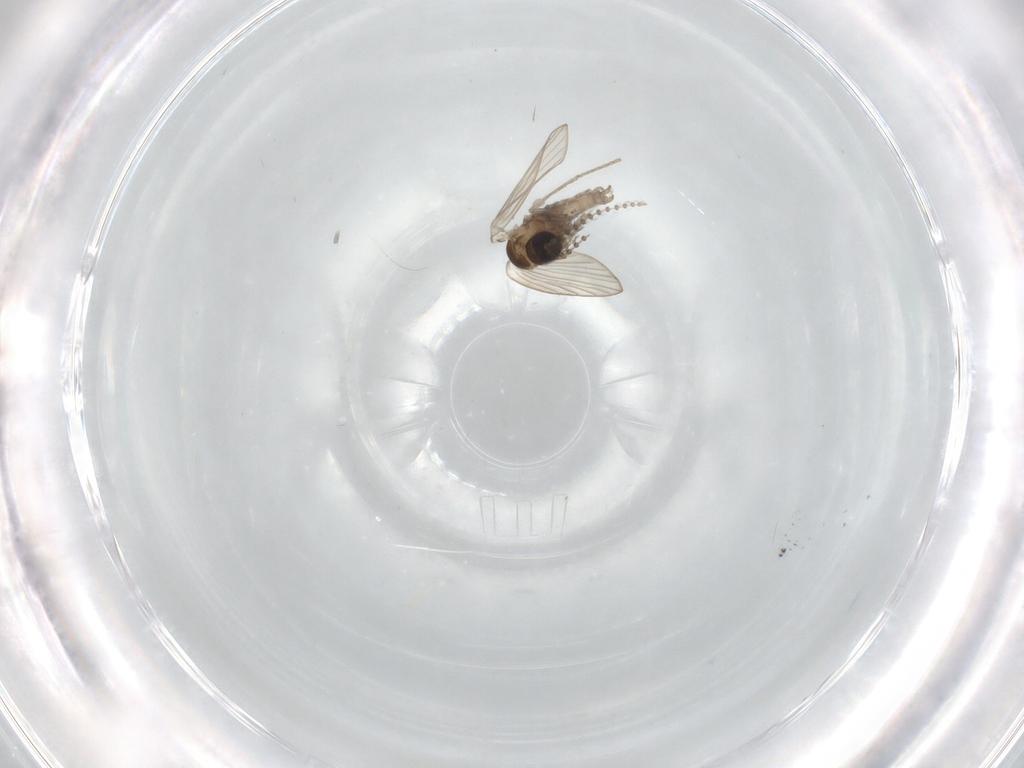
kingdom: Animalia
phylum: Arthropoda
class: Insecta
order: Diptera
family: Psychodidae
